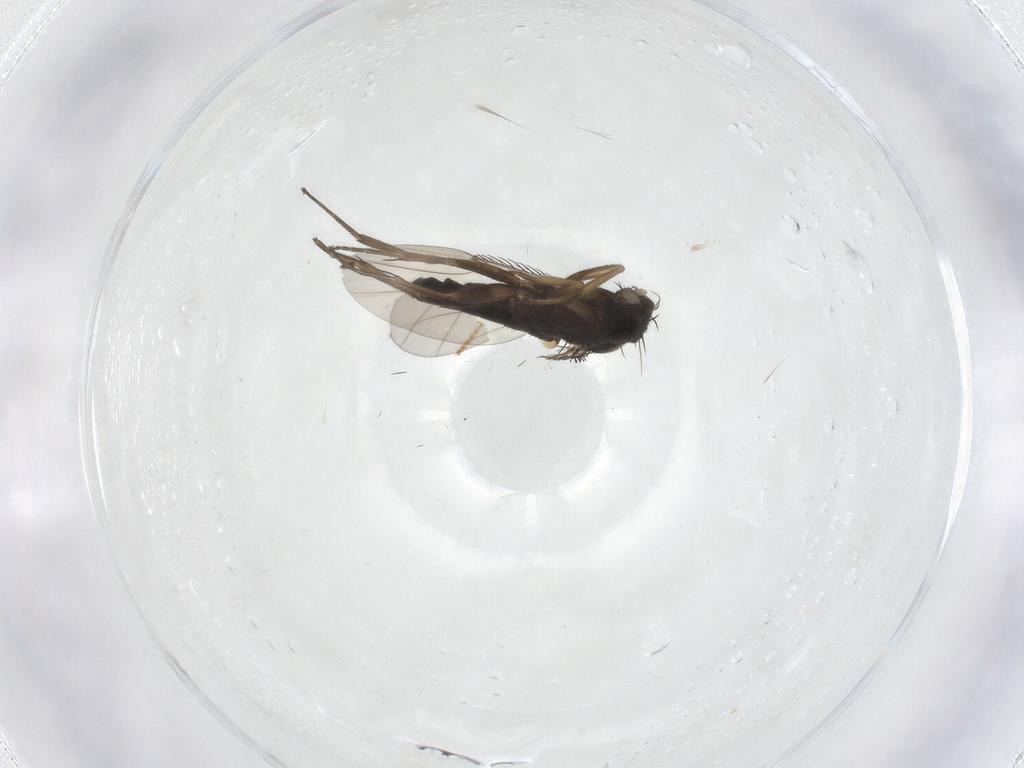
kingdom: Animalia
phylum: Arthropoda
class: Insecta
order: Diptera
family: Phoridae
